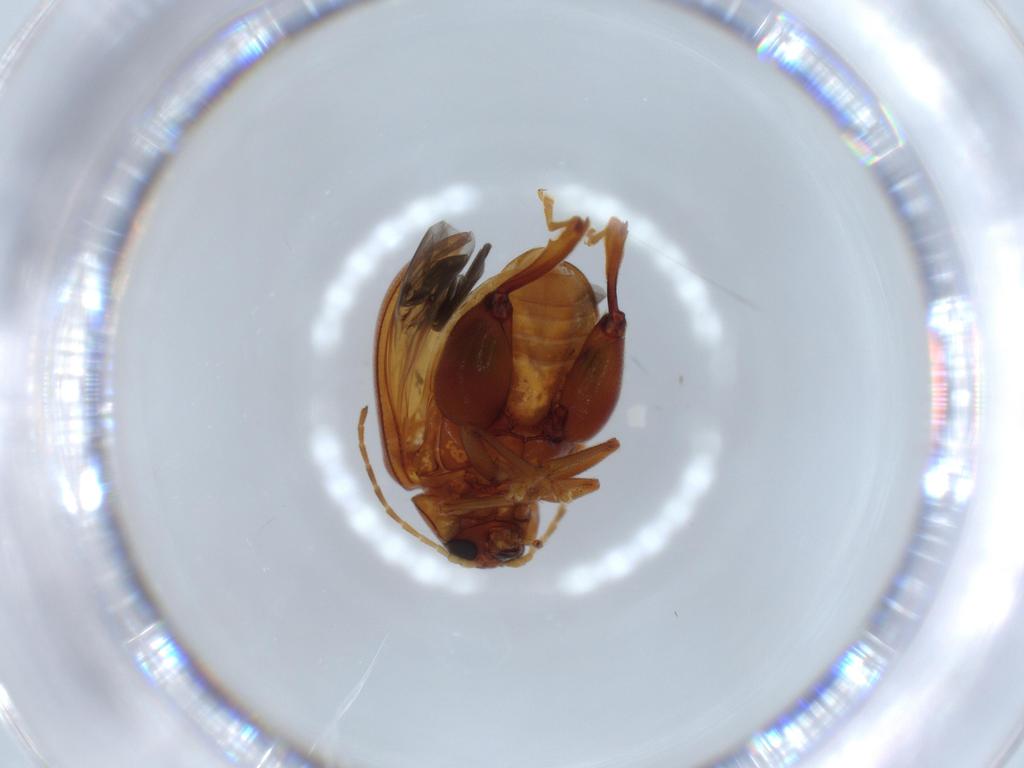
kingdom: Animalia
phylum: Arthropoda
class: Insecta
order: Coleoptera
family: Chrysomelidae
